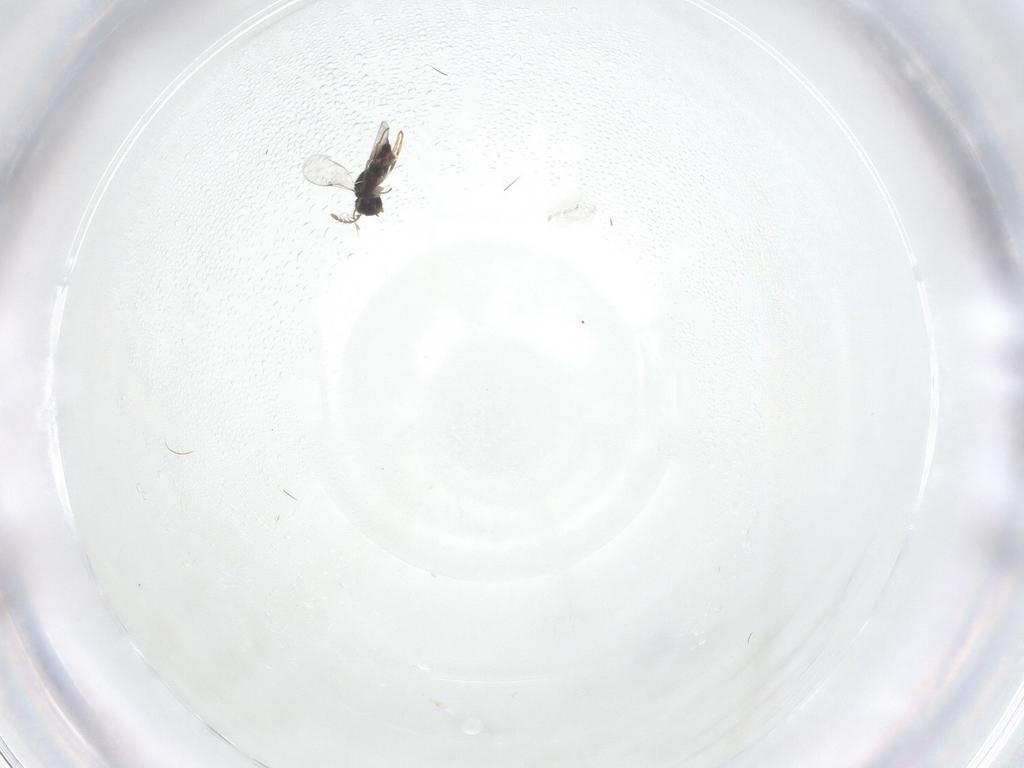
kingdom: Animalia
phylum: Arthropoda
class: Insecta
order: Hymenoptera
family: Encyrtidae
